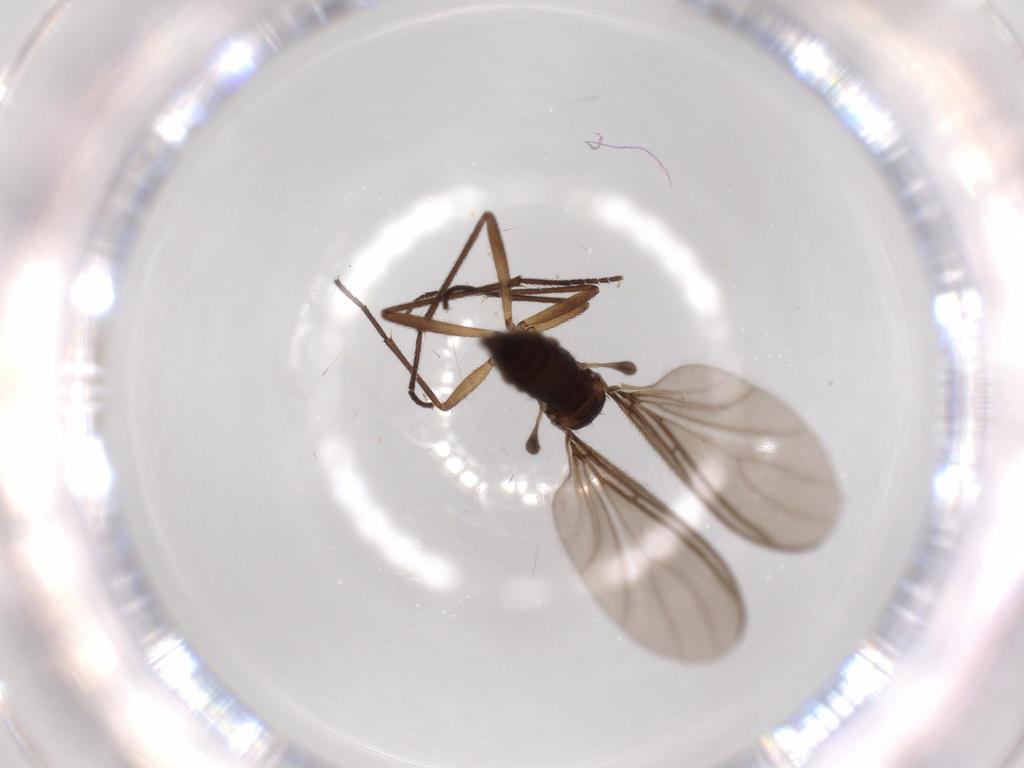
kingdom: Animalia
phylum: Arthropoda
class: Insecta
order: Diptera
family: Sciaridae
